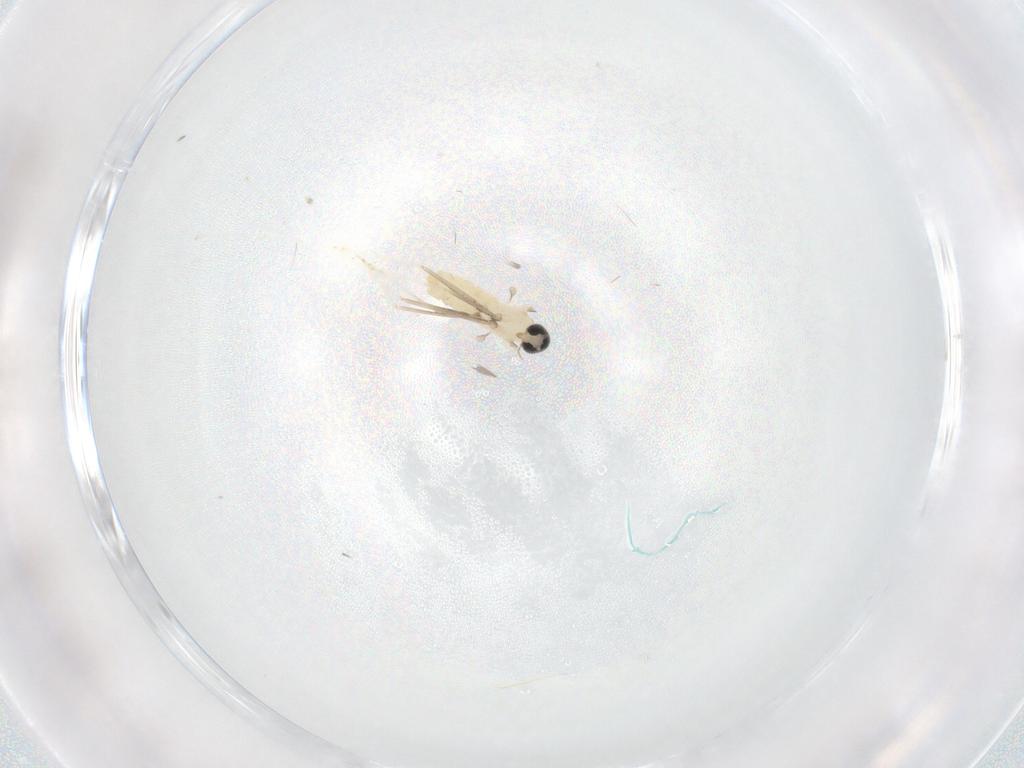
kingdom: Animalia
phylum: Arthropoda
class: Insecta
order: Diptera
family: Cecidomyiidae
